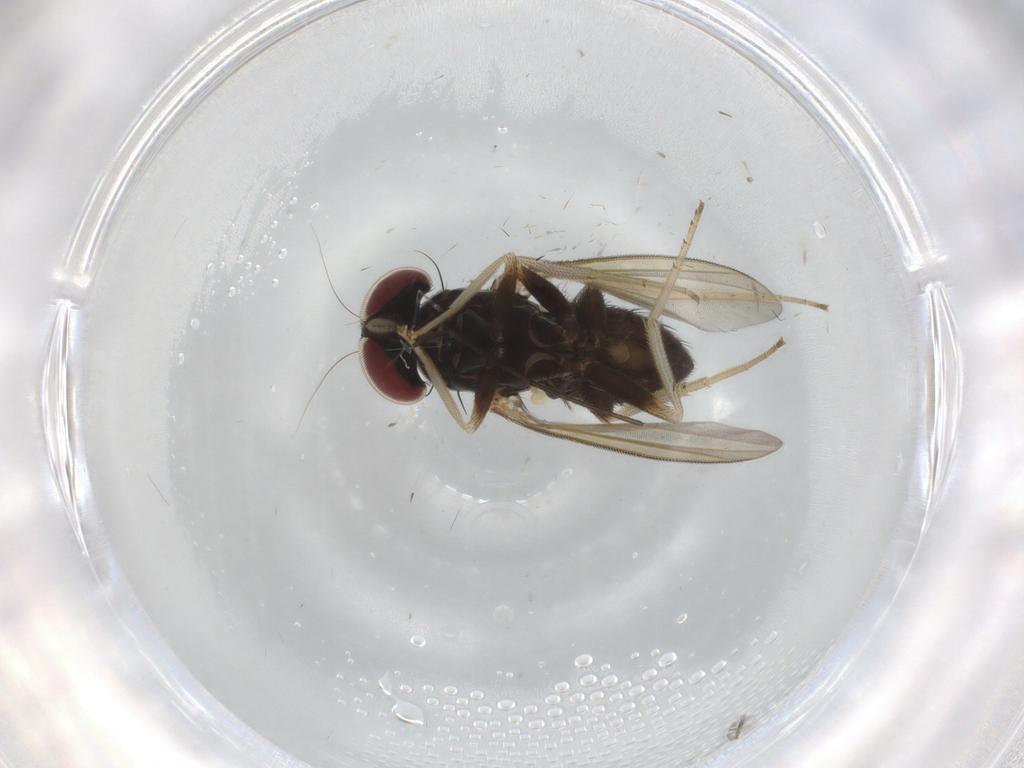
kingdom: Animalia
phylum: Arthropoda
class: Insecta
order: Diptera
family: Dolichopodidae
